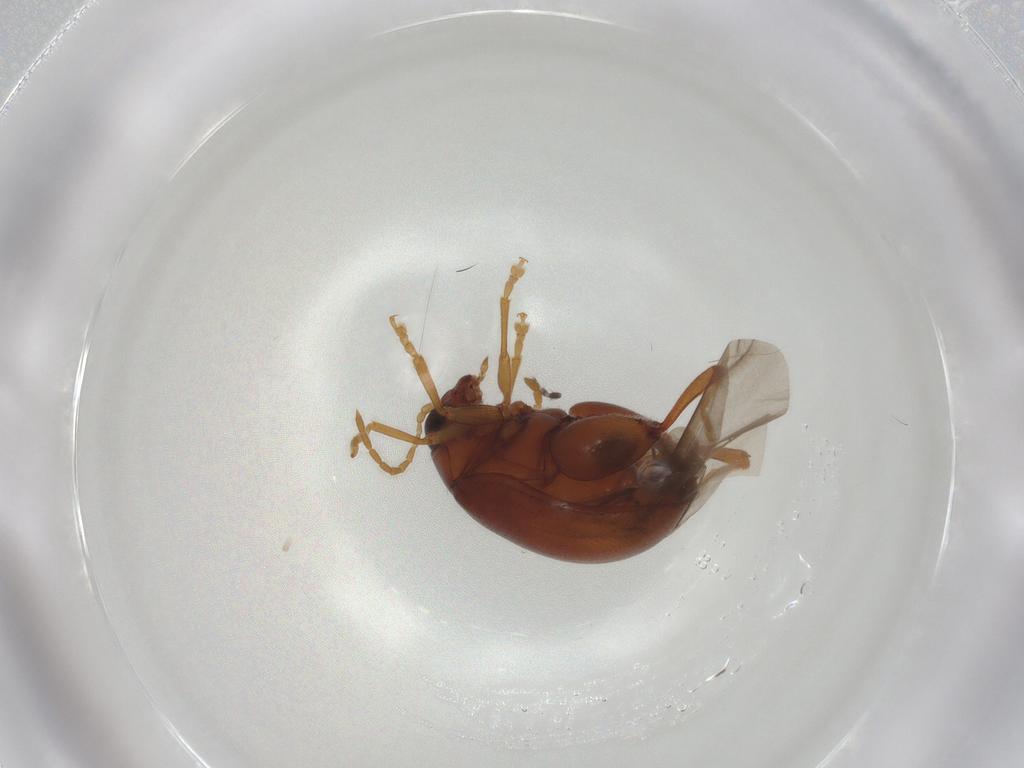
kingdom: Animalia
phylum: Arthropoda
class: Insecta
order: Coleoptera
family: Chrysomelidae
